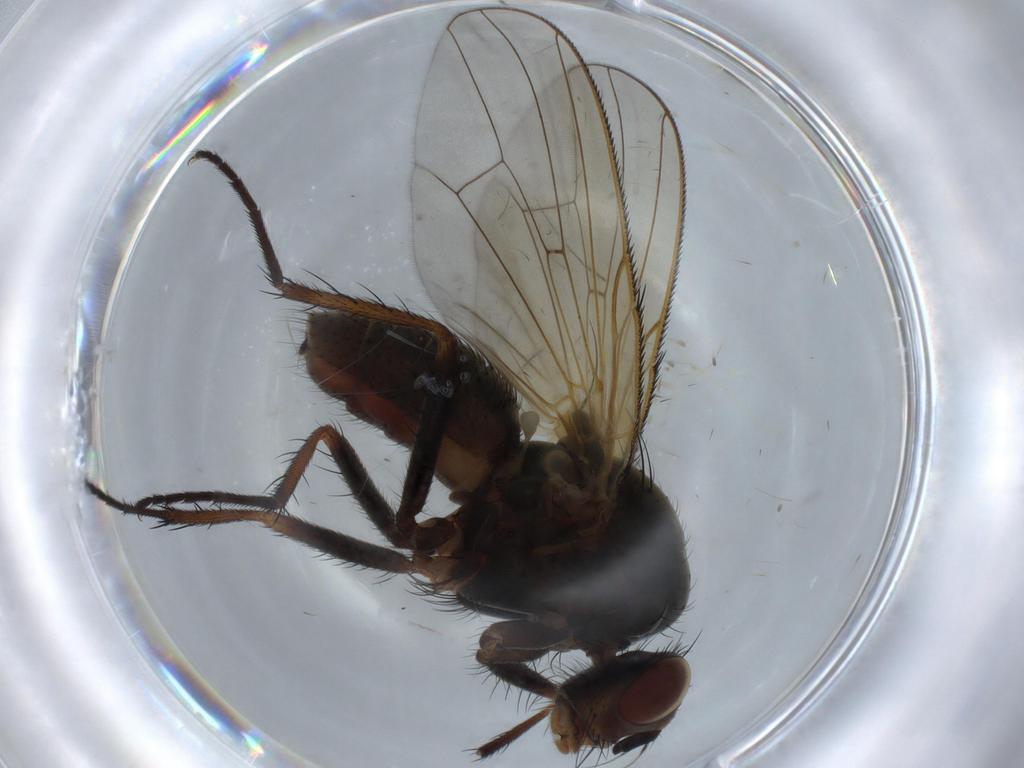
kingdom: Animalia
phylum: Arthropoda
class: Insecta
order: Diptera
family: Anthomyiidae
